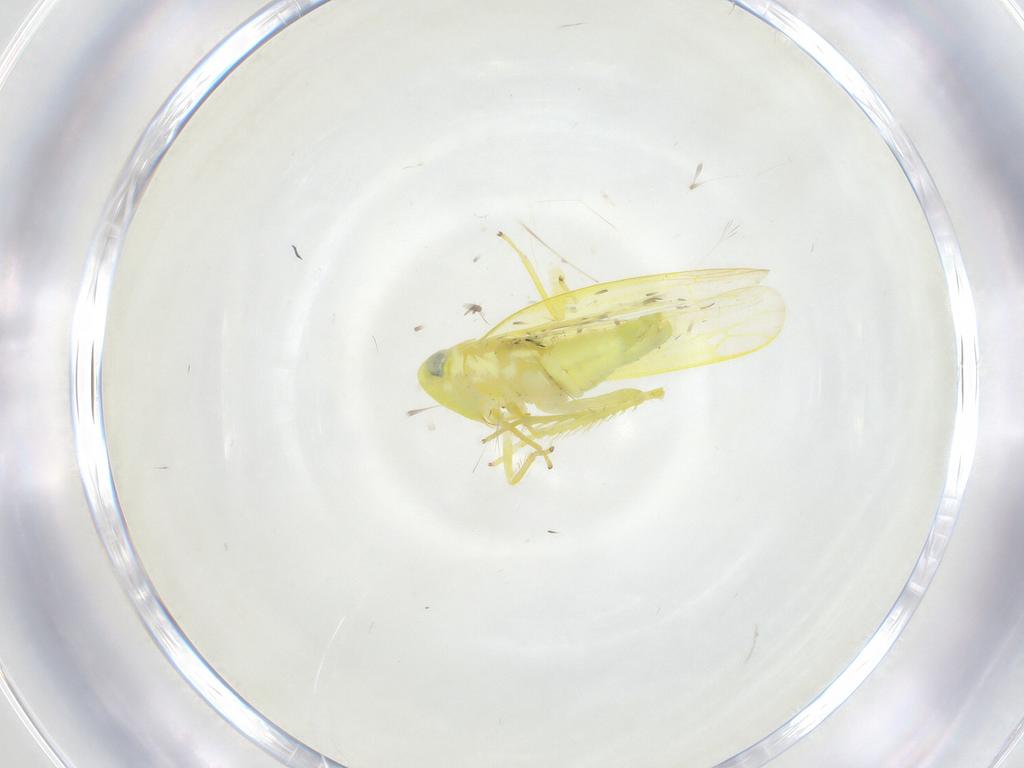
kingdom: Animalia
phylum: Arthropoda
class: Insecta
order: Hemiptera
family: Cicadellidae
